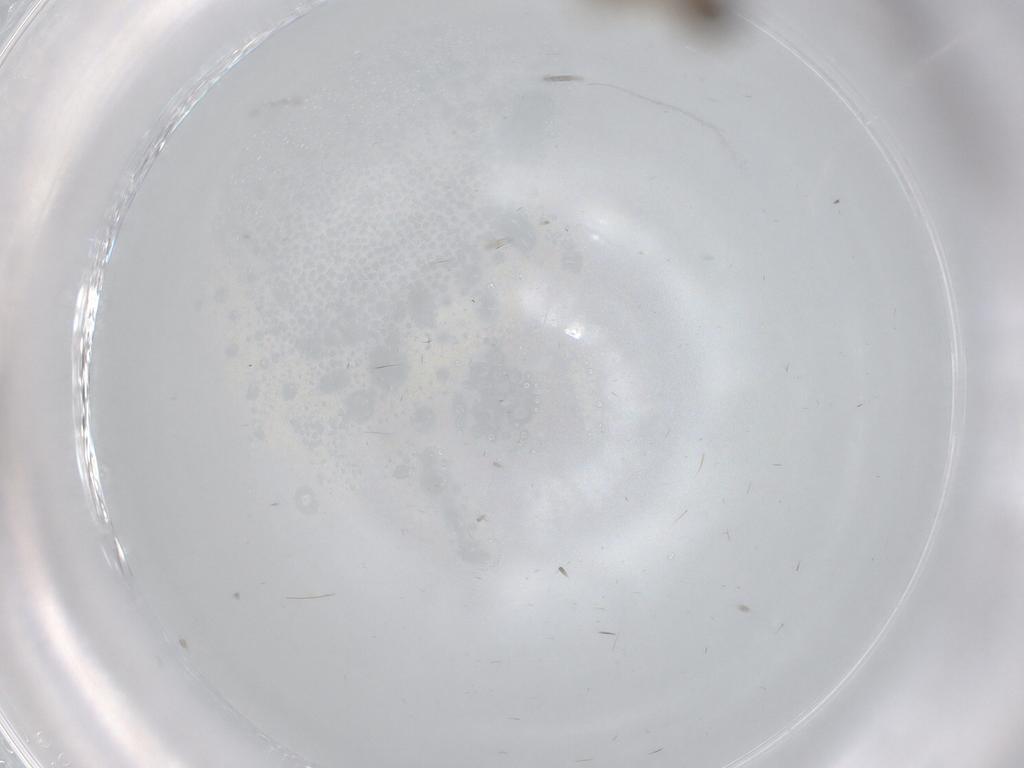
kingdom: Animalia
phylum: Arthropoda
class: Insecta
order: Diptera
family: Sciaridae
